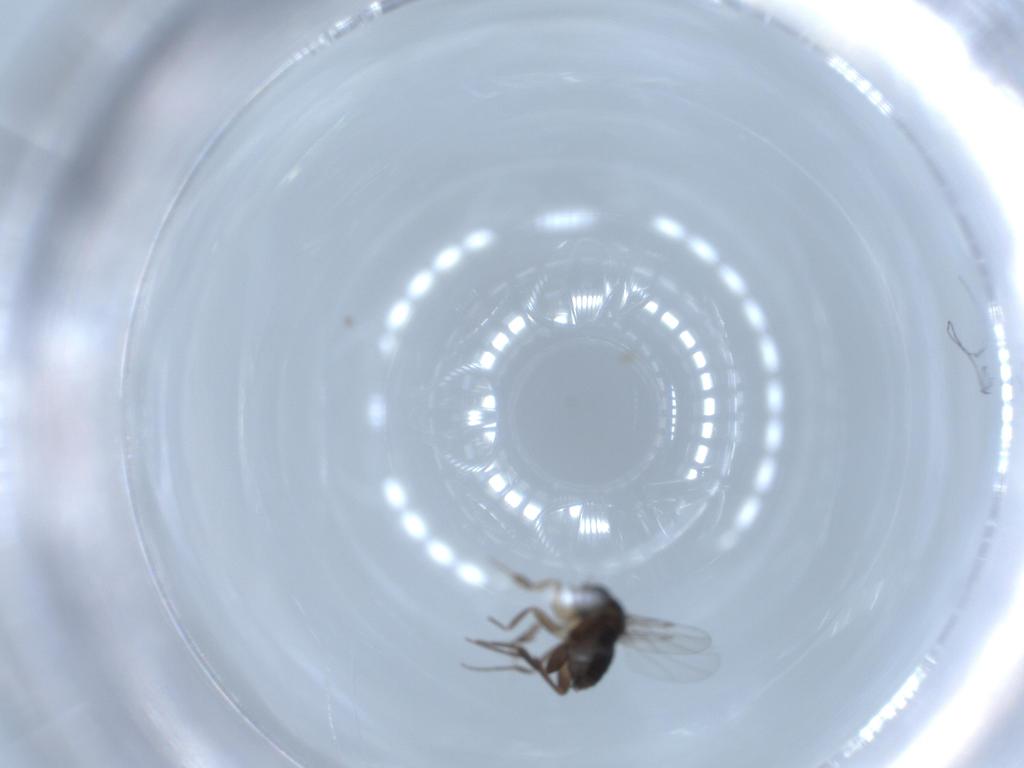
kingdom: Animalia
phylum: Arthropoda
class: Insecta
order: Diptera
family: Phoridae
